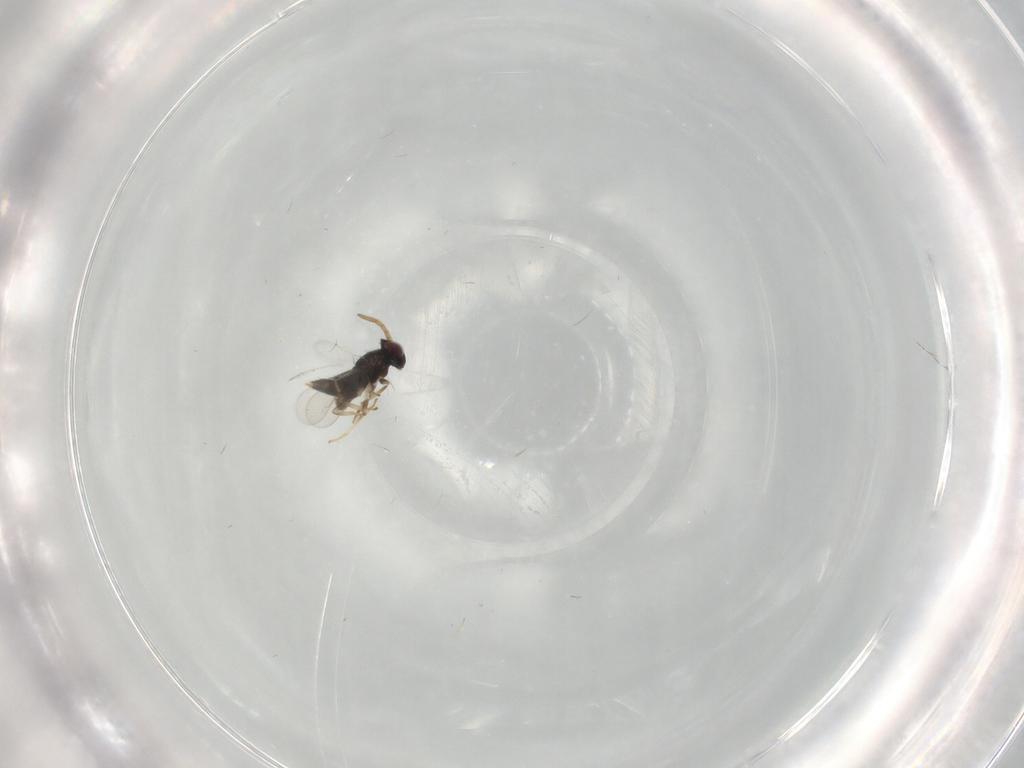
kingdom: Animalia
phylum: Arthropoda
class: Insecta
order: Hymenoptera
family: Aphelinidae
